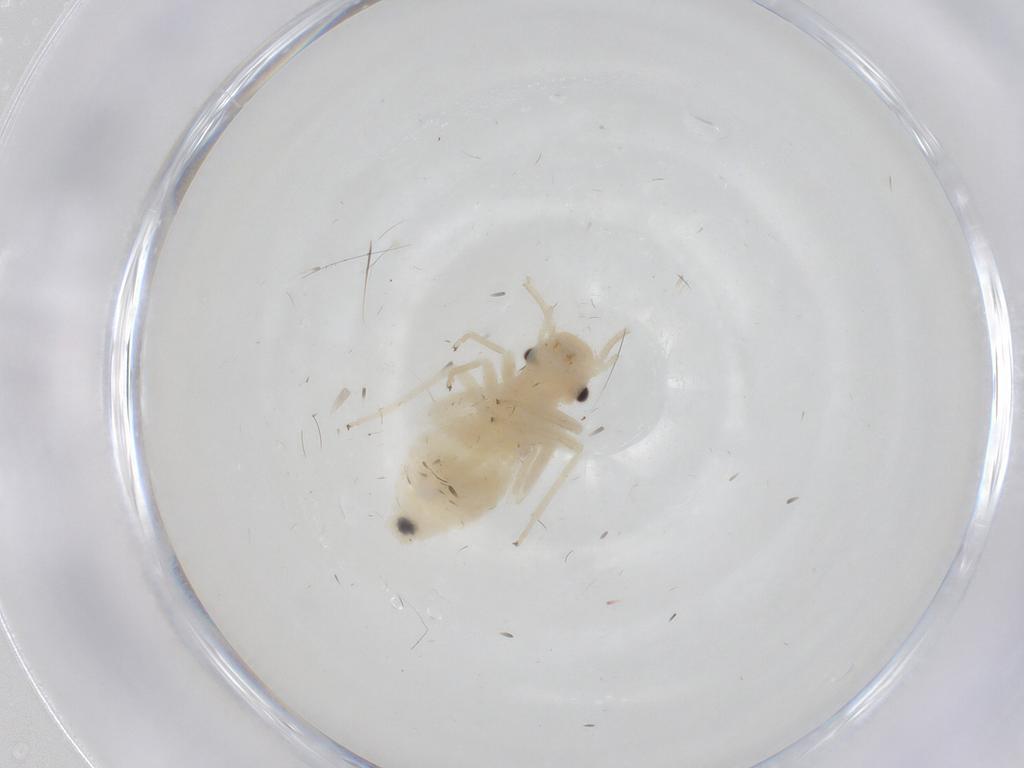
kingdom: Animalia
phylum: Arthropoda
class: Insecta
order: Psocodea
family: Caeciliusidae
